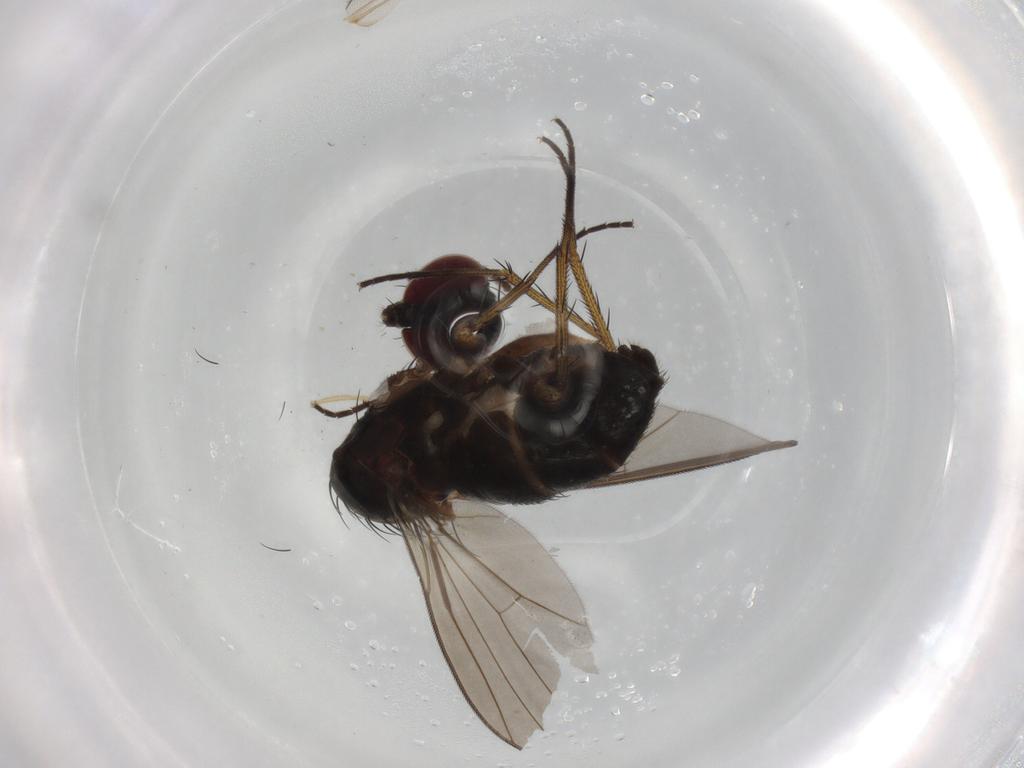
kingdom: Animalia
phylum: Arthropoda
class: Insecta
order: Diptera
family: Dolichopodidae
